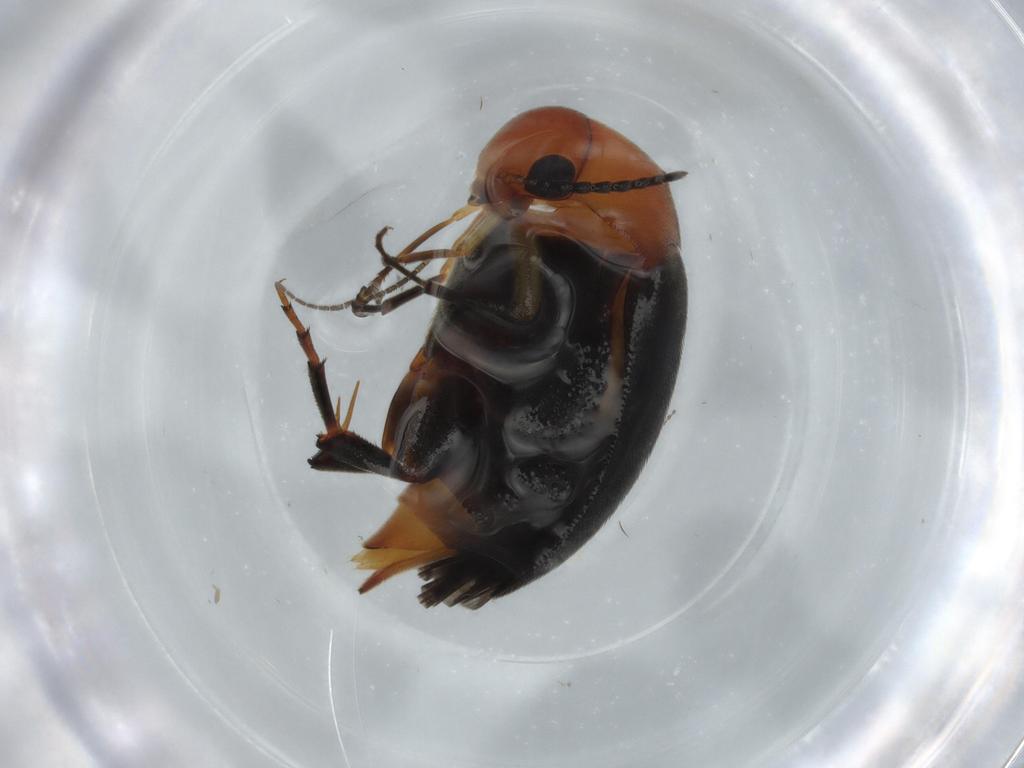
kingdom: Animalia
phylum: Arthropoda
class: Insecta
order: Coleoptera
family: Mordellidae
